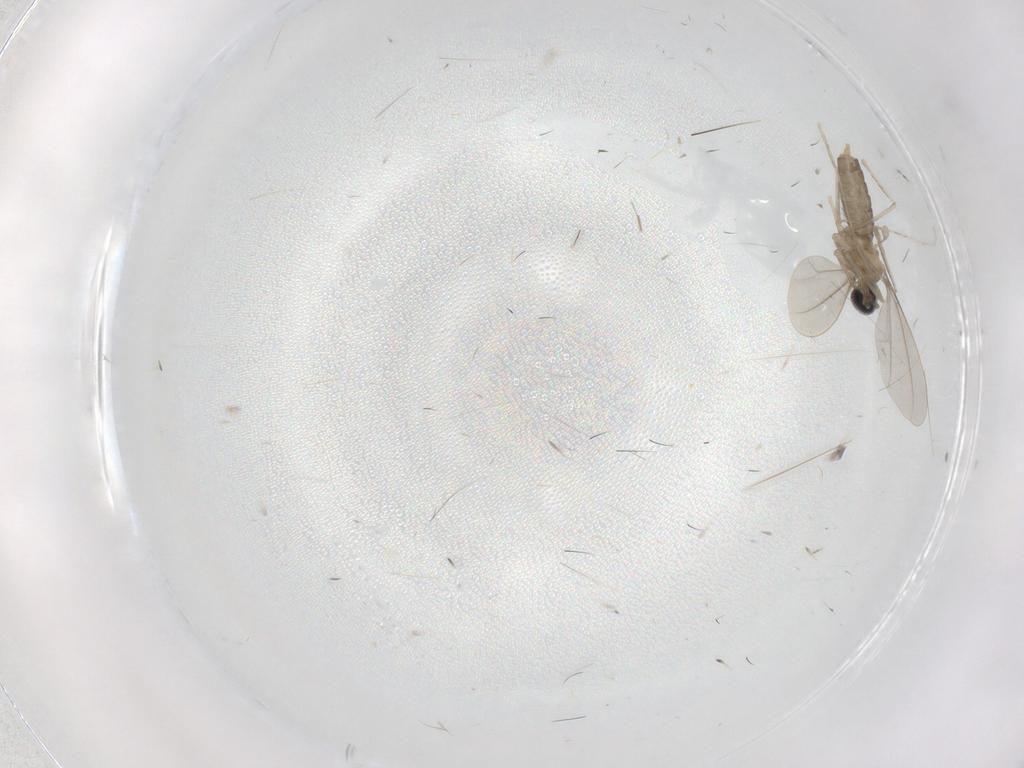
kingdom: Animalia
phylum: Arthropoda
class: Insecta
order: Diptera
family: Cecidomyiidae
